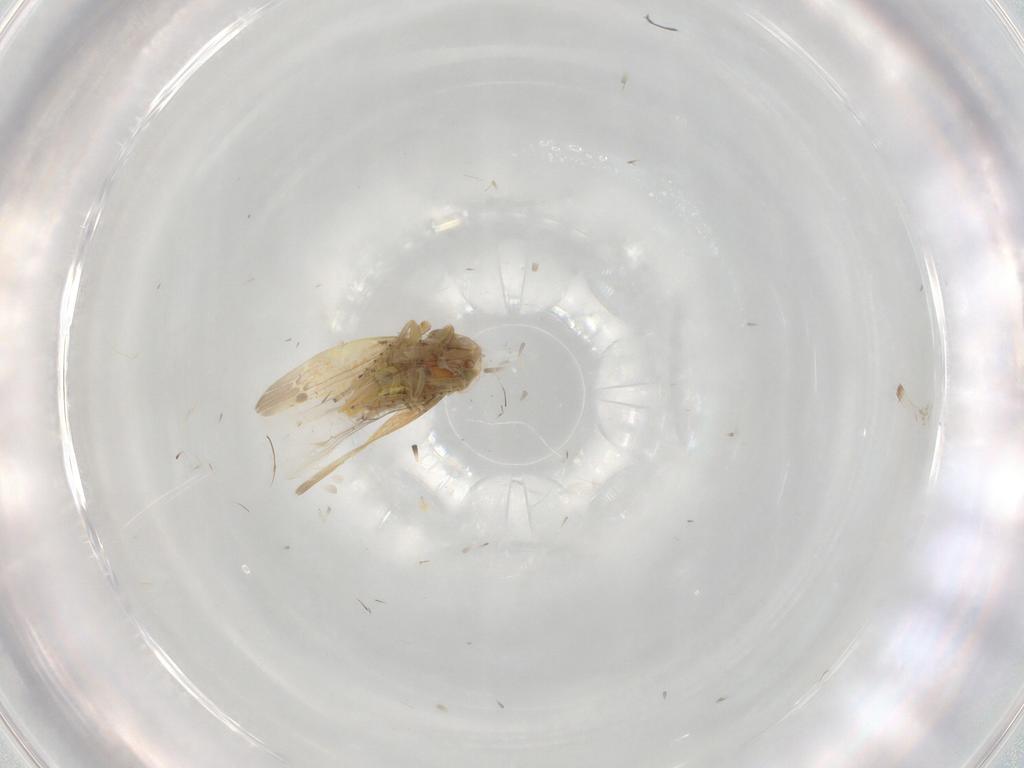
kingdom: Animalia
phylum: Arthropoda
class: Insecta
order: Hemiptera
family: Cicadellidae
